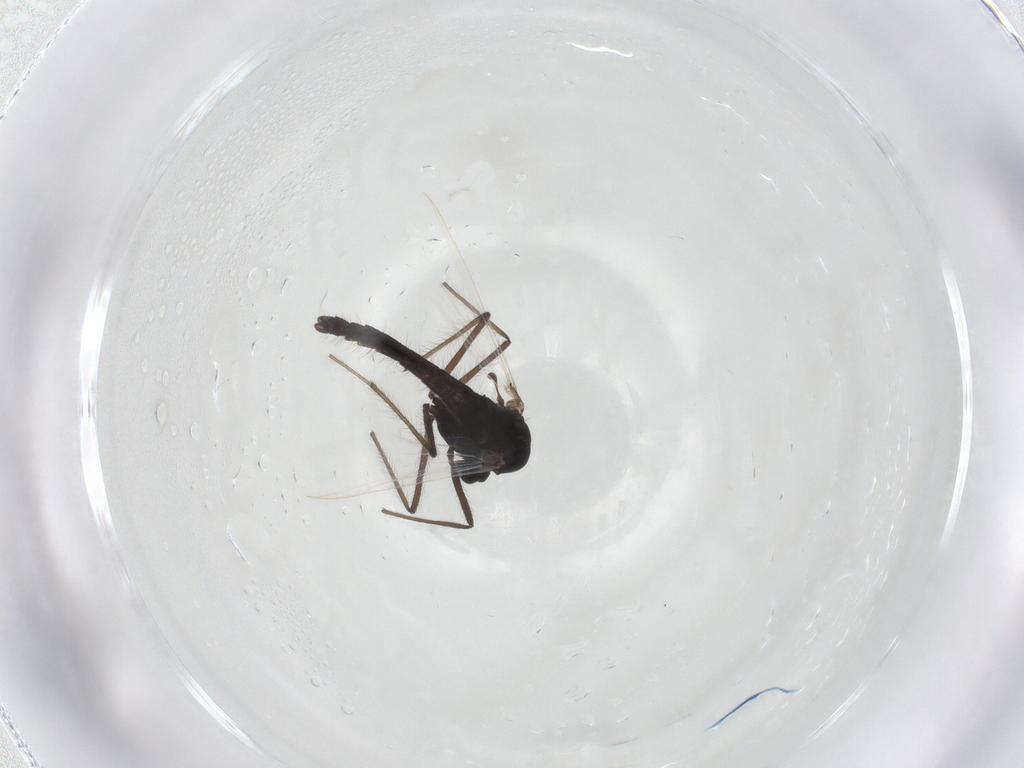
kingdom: Animalia
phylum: Arthropoda
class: Insecta
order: Diptera
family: Chironomidae
